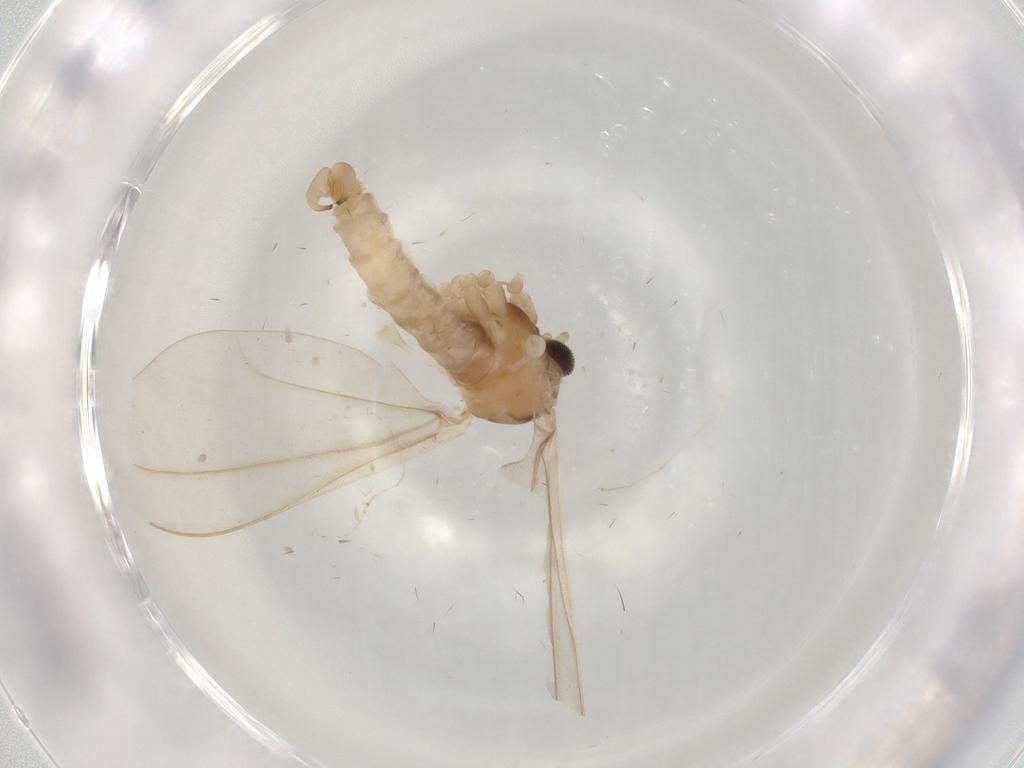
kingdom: Animalia
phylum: Arthropoda
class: Insecta
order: Diptera
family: Cecidomyiidae
